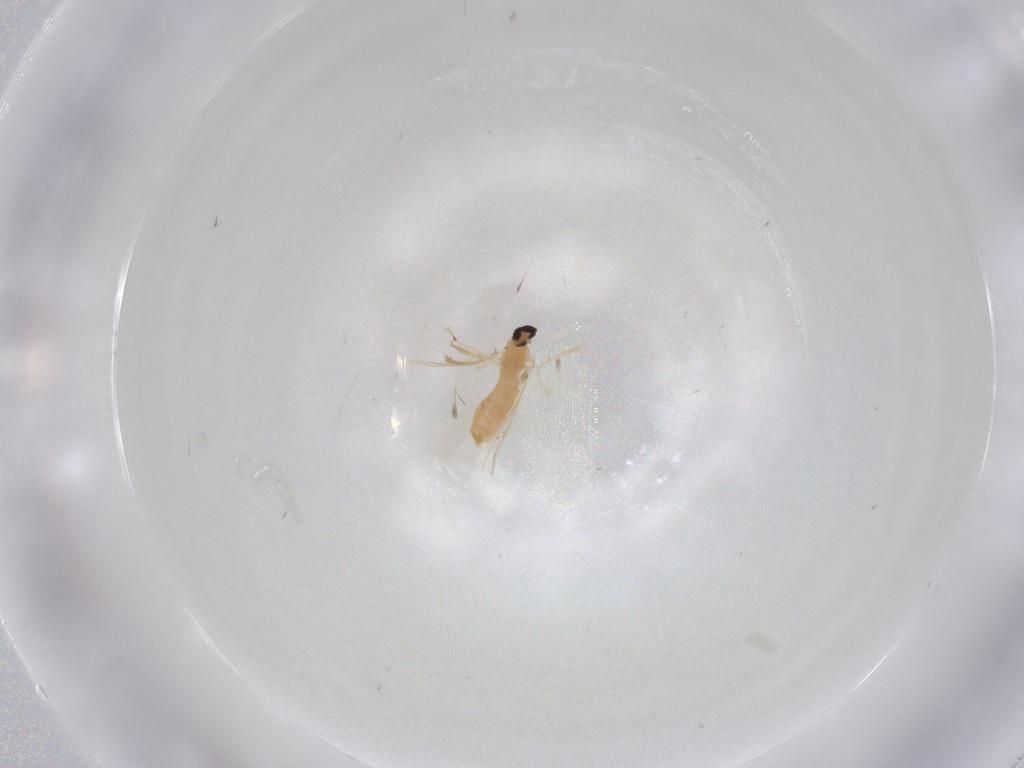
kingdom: Animalia
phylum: Arthropoda
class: Insecta
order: Diptera
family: Cecidomyiidae
